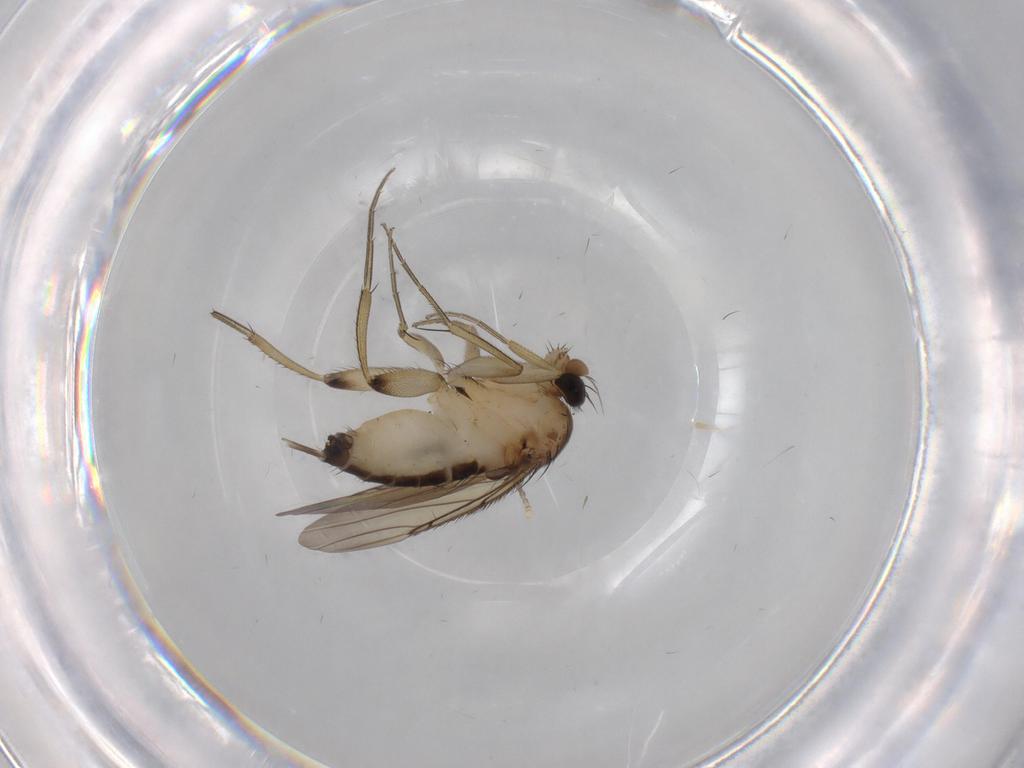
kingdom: Animalia
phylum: Arthropoda
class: Insecta
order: Diptera
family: Phoridae
